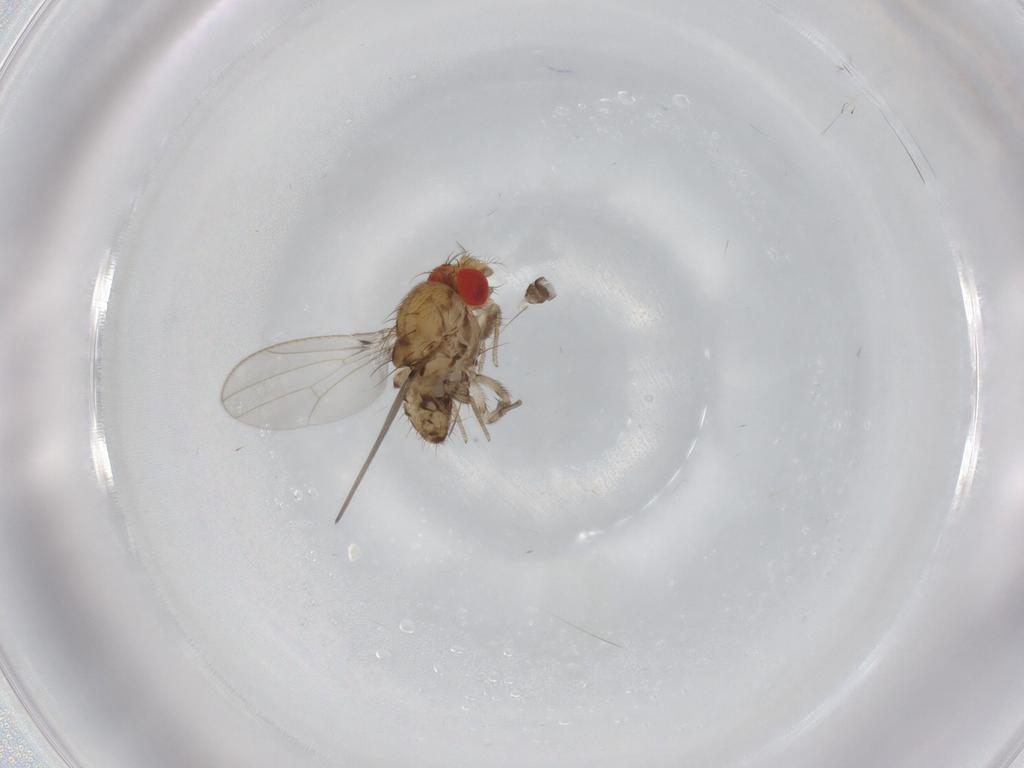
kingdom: Animalia
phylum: Arthropoda
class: Insecta
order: Diptera
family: Drosophilidae
